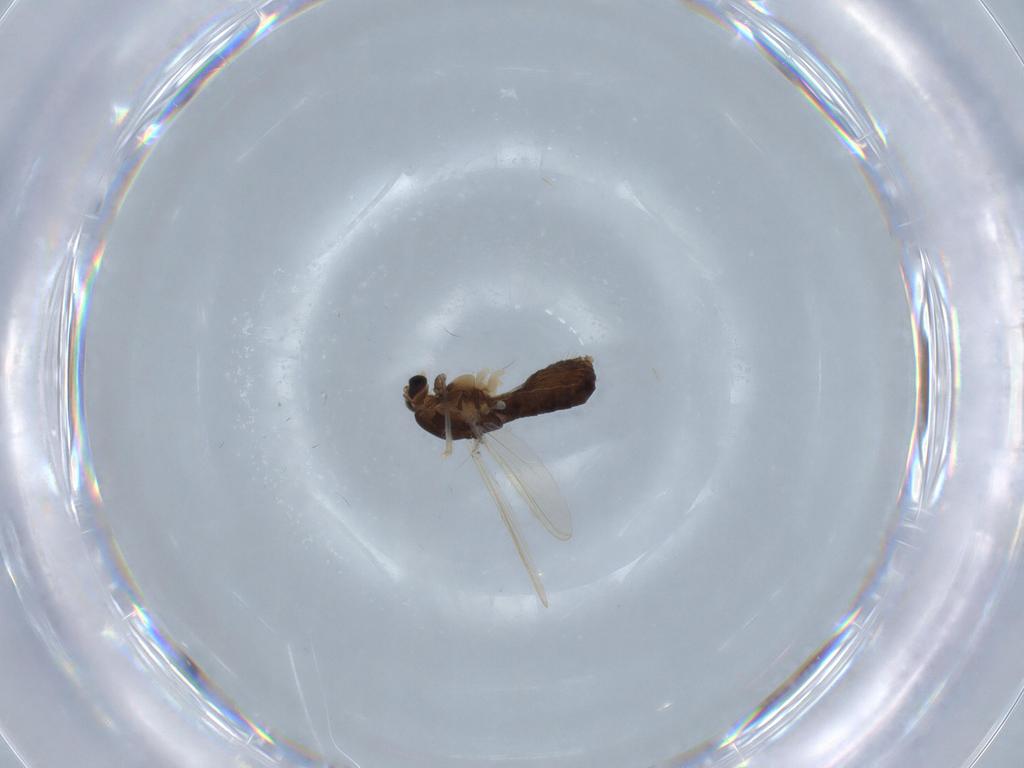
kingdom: Animalia
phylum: Arthropoda
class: Insecta
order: Diptera
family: Chironomidae
